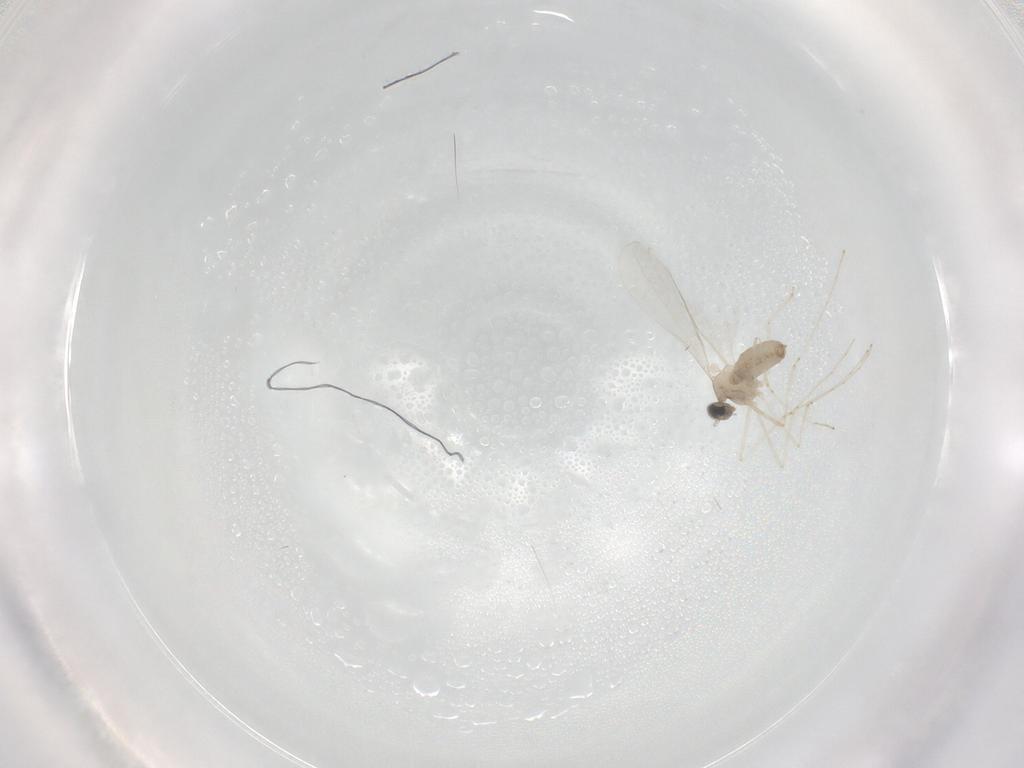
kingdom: Animalia
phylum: Arthropoda
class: Insecta
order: Diptera
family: Cecidomyiidae
